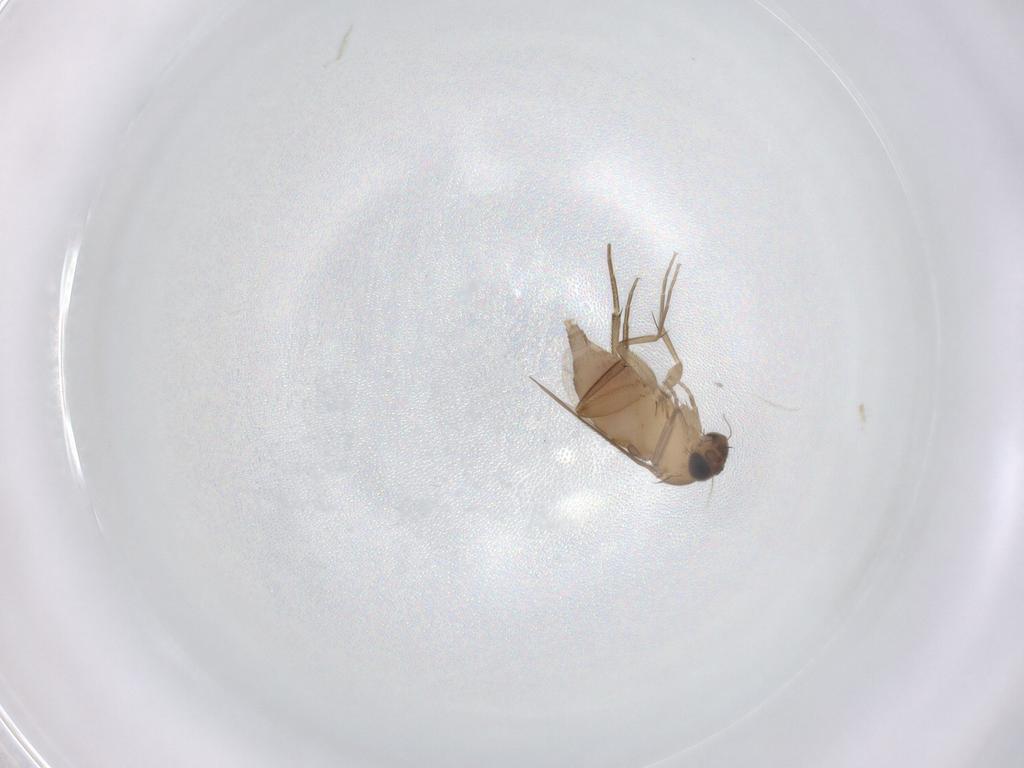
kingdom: Animalia
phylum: Arthropoda
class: Insecta
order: Diptera
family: Phoridae
